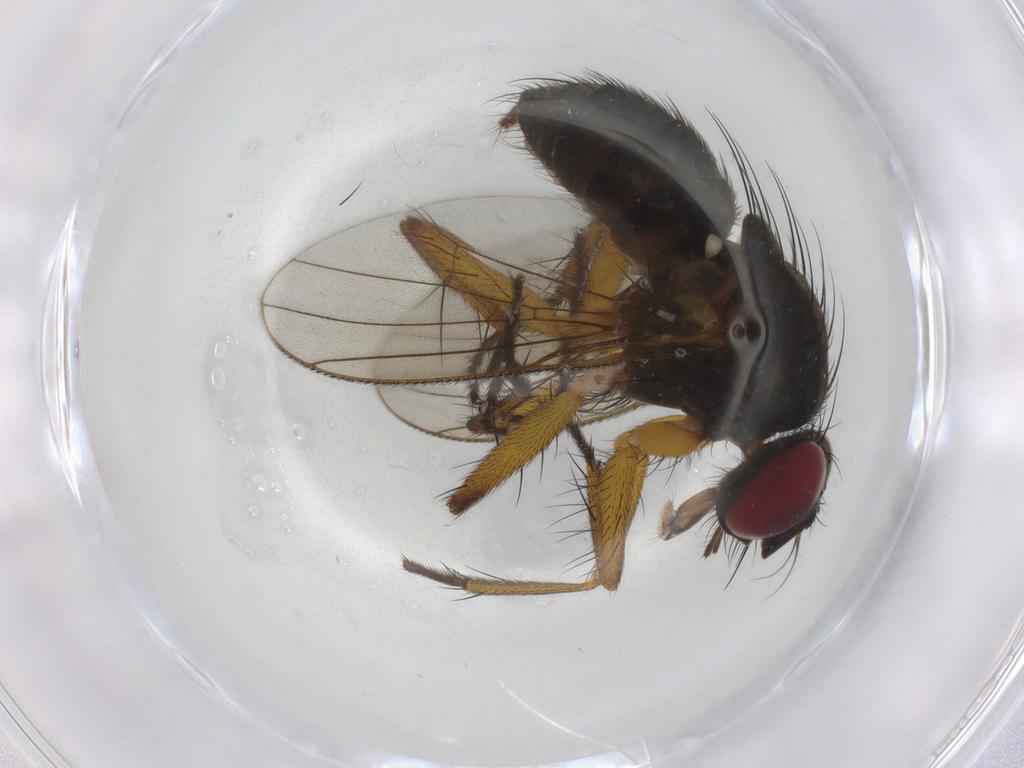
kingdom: Animalia
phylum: Arthropoda
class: Insecta
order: Diptera
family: Muscidae
